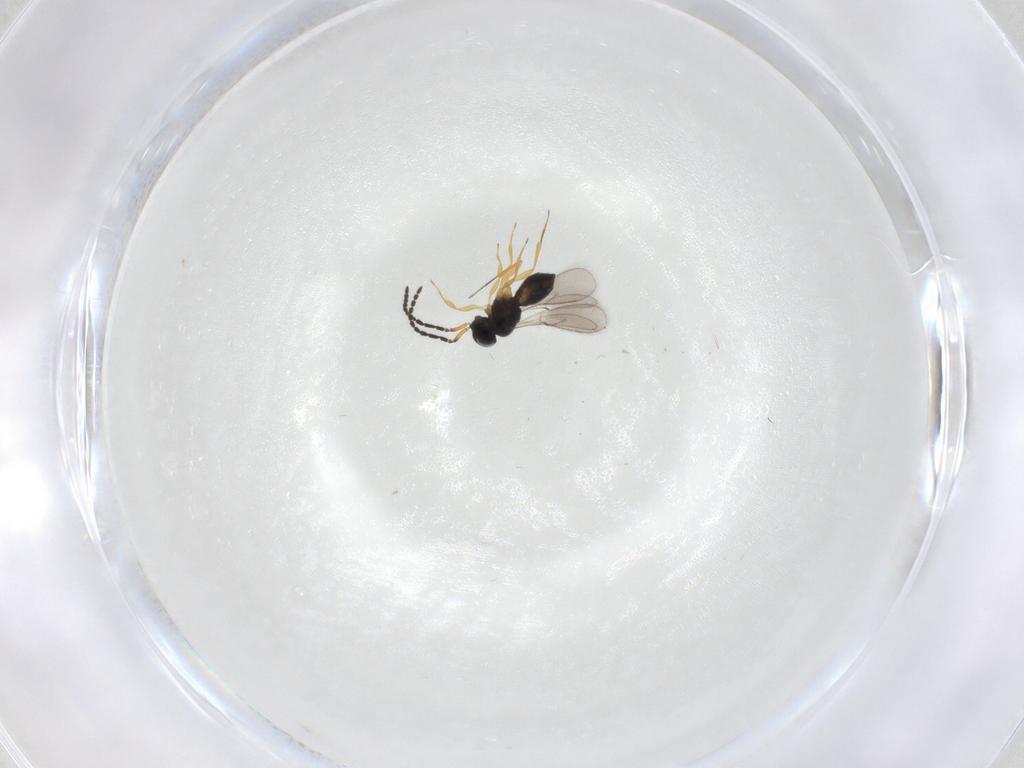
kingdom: Animalia
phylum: Arthropoda
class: Insecta
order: Hymenoptera
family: Scelionidae
